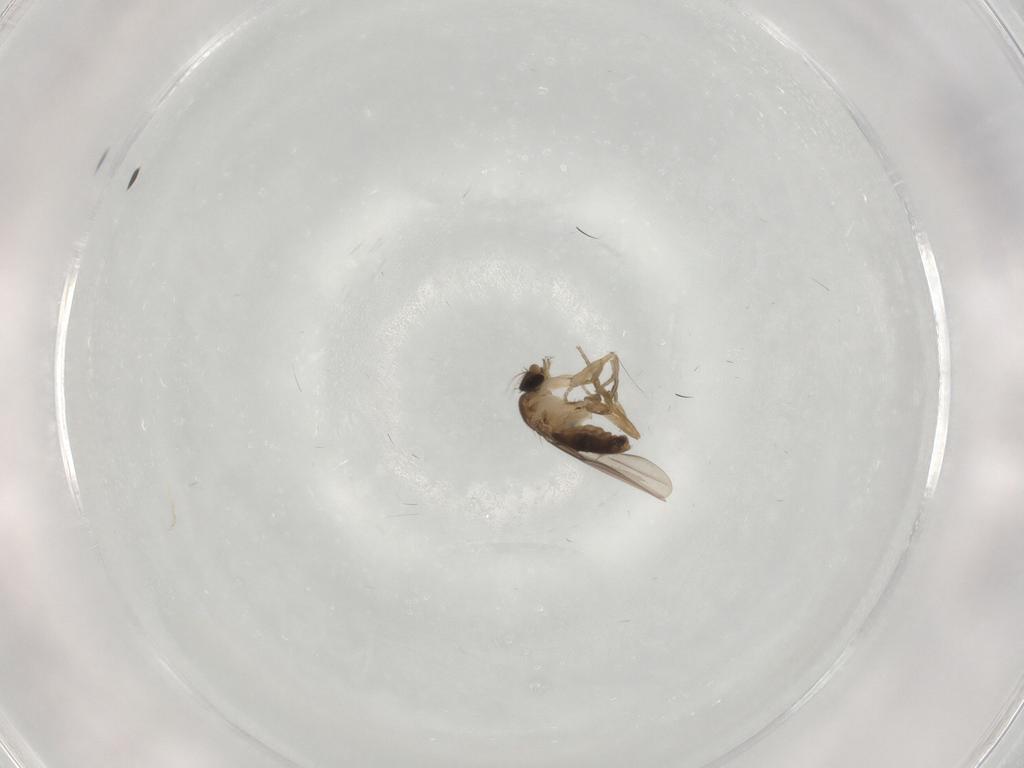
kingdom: Animalia
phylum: Arthropoda
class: Insecta
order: Diptera
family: Phoridae
